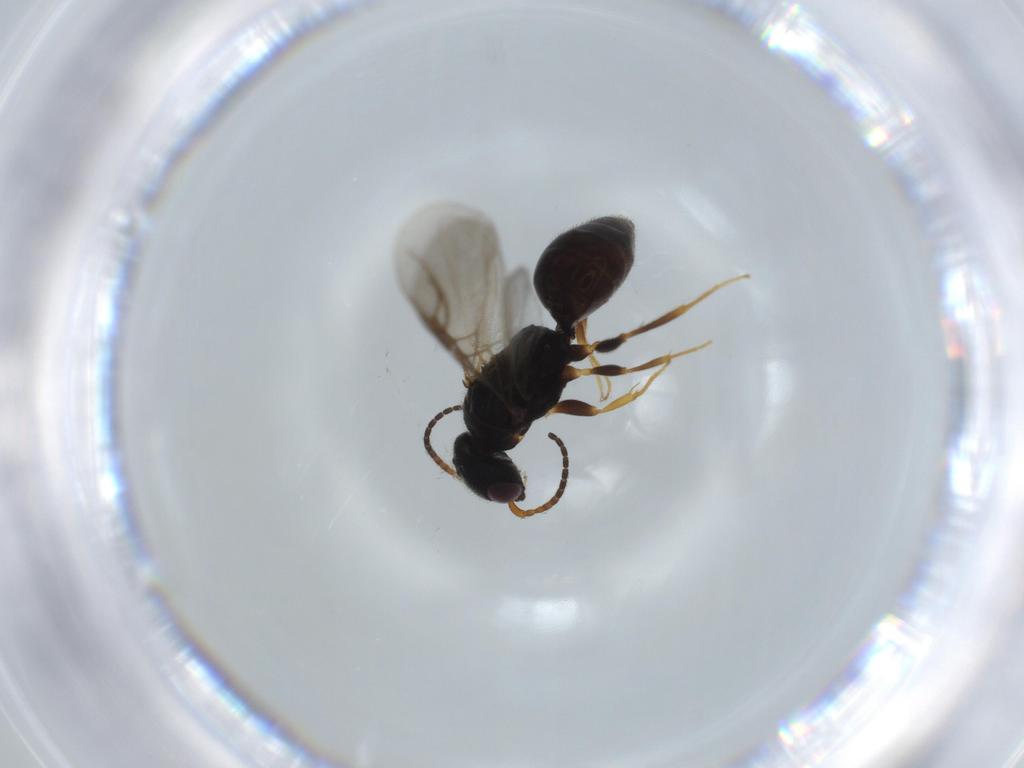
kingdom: Animalia
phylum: Arthropoda
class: Insecta
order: Hymenoptera
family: Bethylidae
